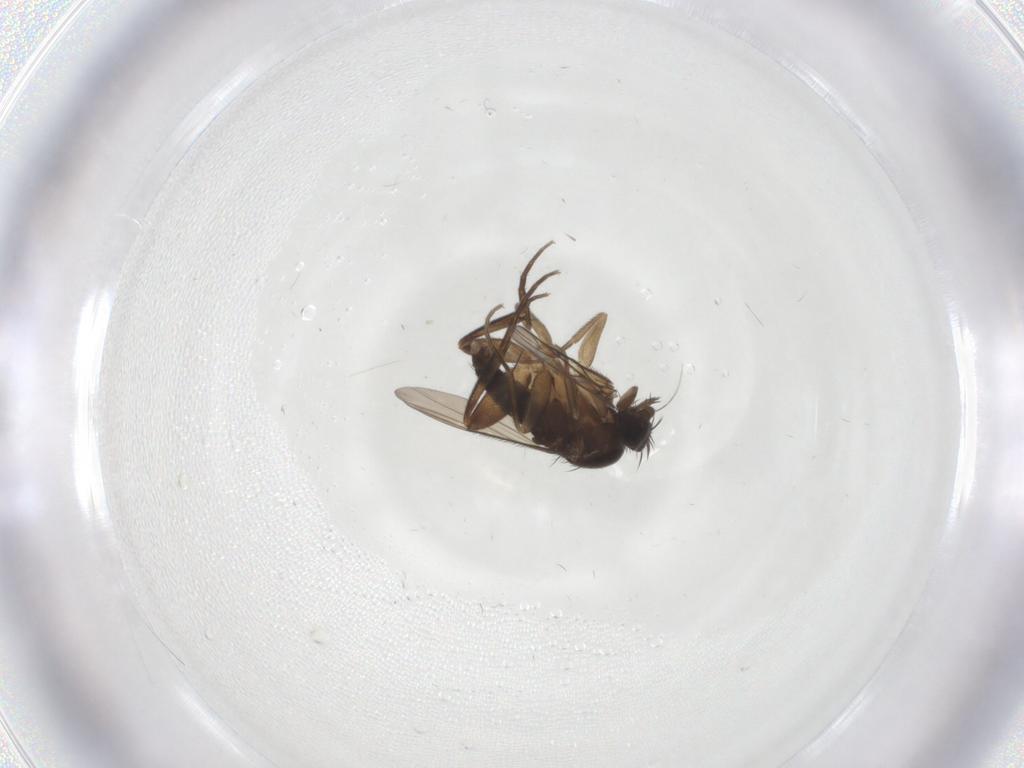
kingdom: Animalia
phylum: Arthropoda
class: Insecta
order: Diptera
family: Phoridae
